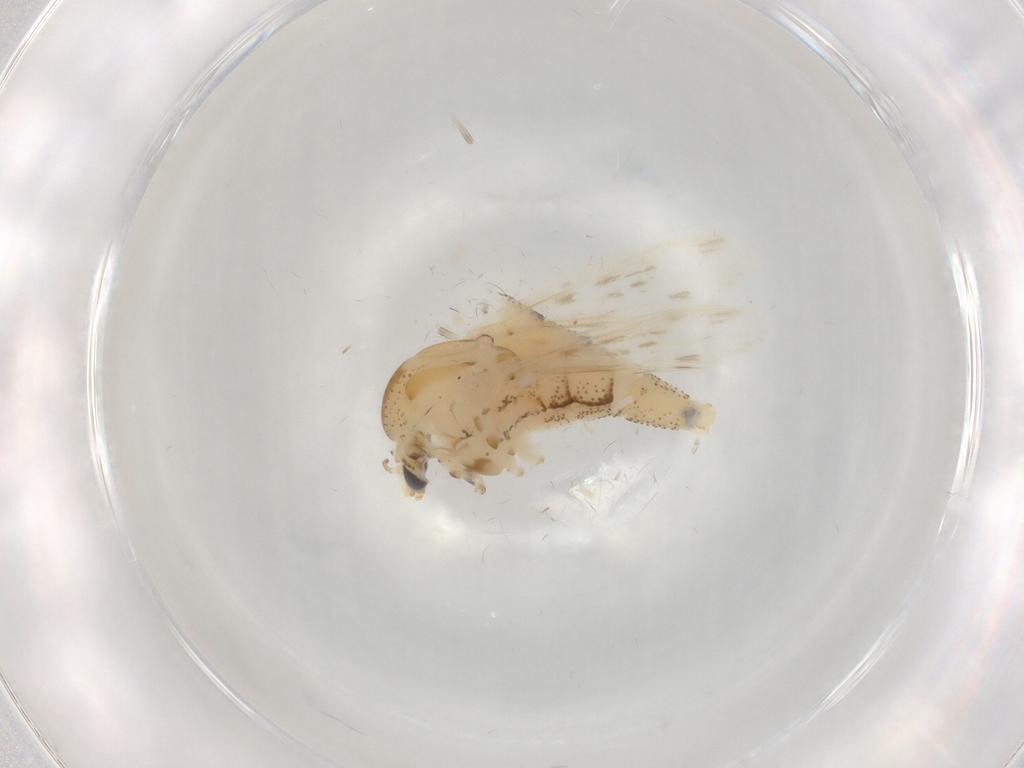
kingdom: Animalia
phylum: Arthropoda
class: Insecta
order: Diptera
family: Chaoboridae
